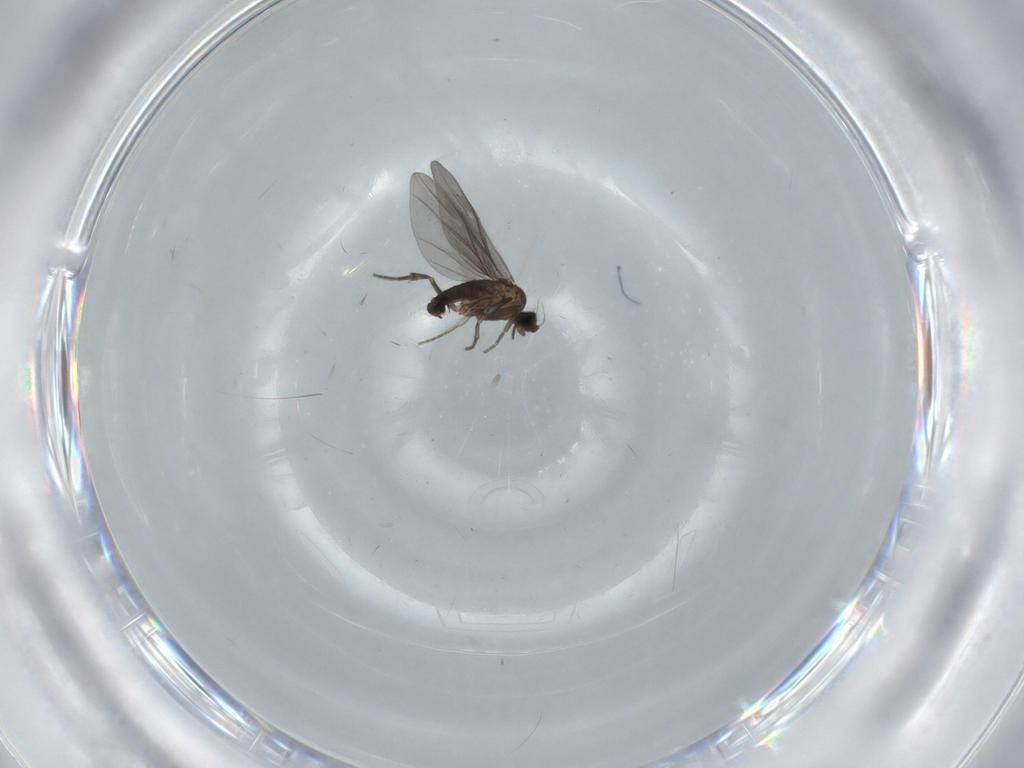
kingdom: Animalia
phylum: Arthropoda
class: Insecta
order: Diptera
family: Phoridae
